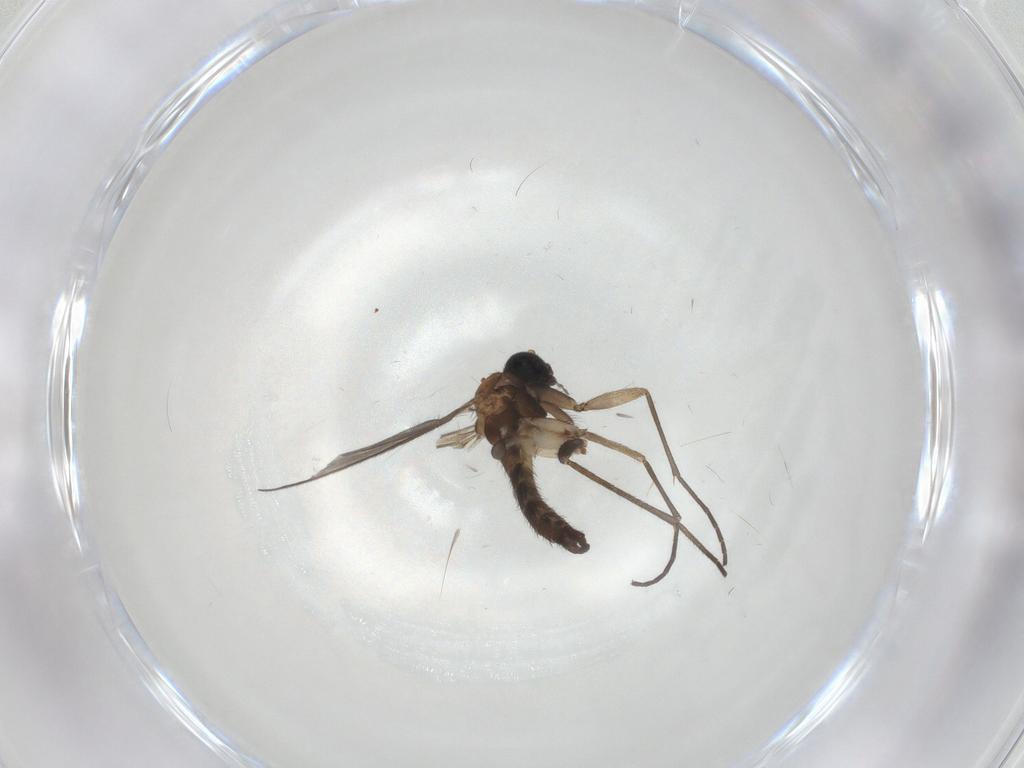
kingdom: Animalia
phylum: Arthropoda
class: Insecta
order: Diptera
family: Sciaridae
